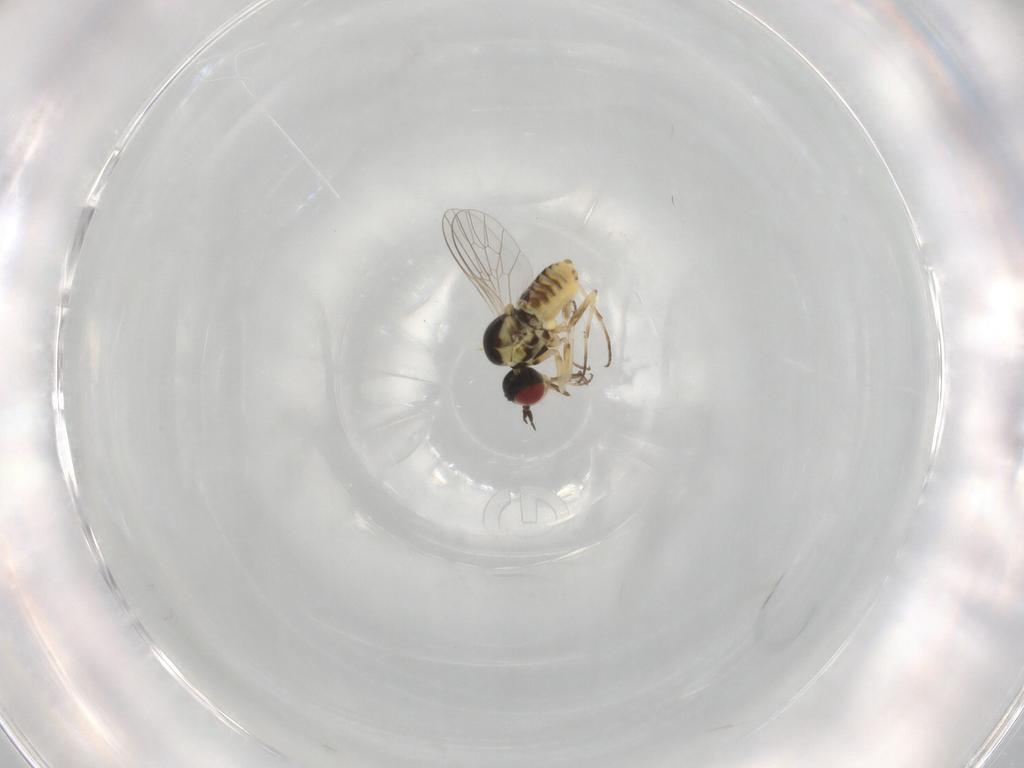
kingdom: Animalia
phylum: Arthropoda
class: Insecta
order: Diptera
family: Bombyliidae
